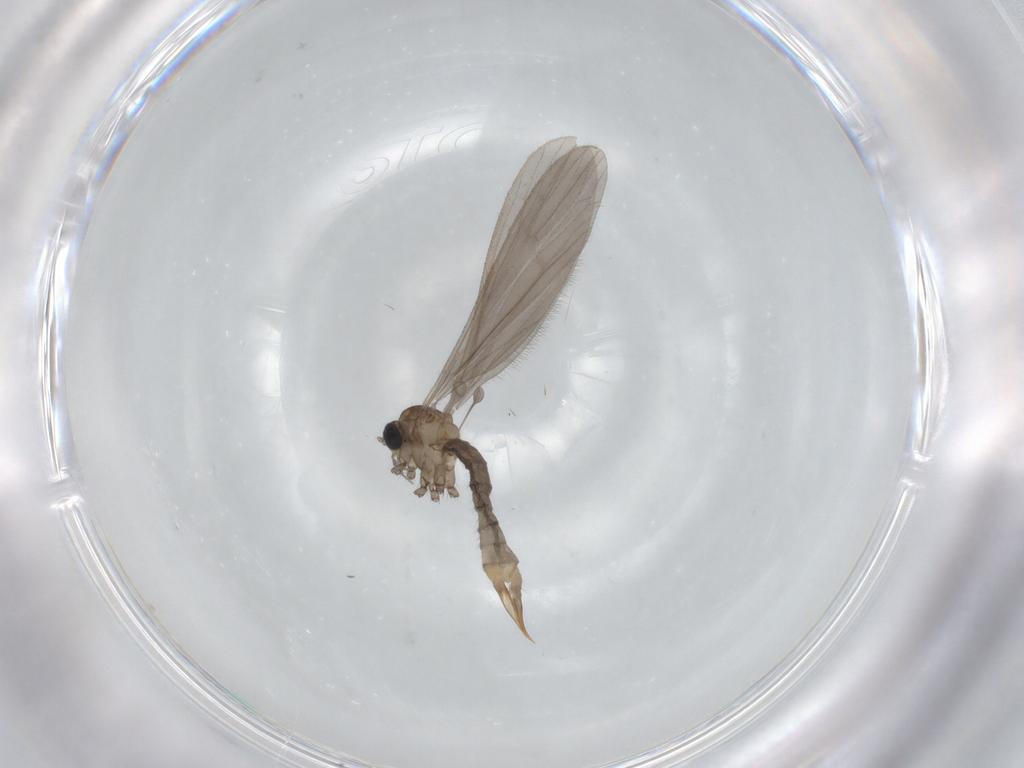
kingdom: Animalia
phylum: Arthropoda
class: Insecta
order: Diptera
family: Limoniidae
